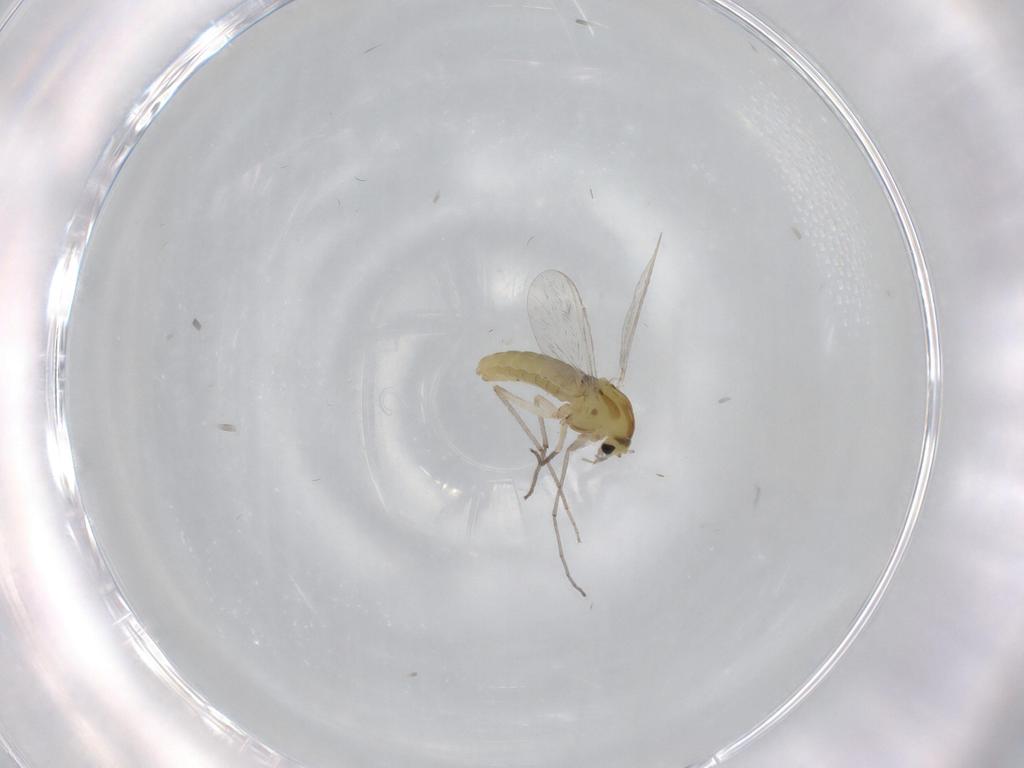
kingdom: Animalia
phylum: Arthropoda
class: Insecta
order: Diptera
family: Chironomidae
